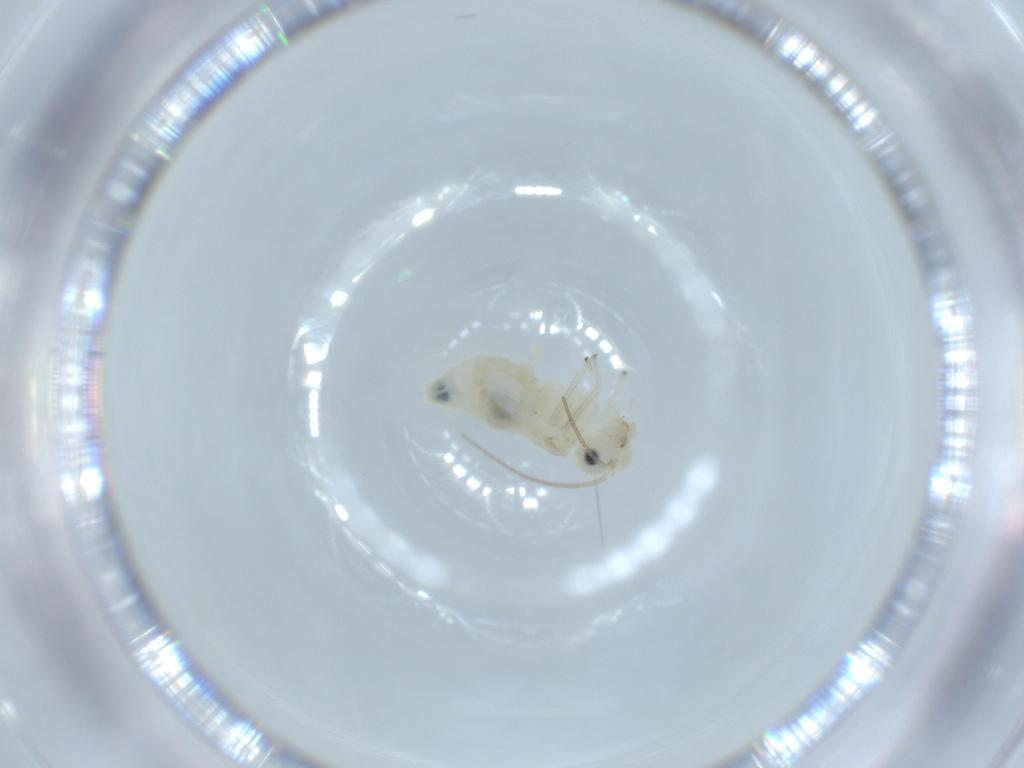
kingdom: Animalia
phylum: Arthropoda
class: Insecta
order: Psocodea
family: Caeciliusidae
